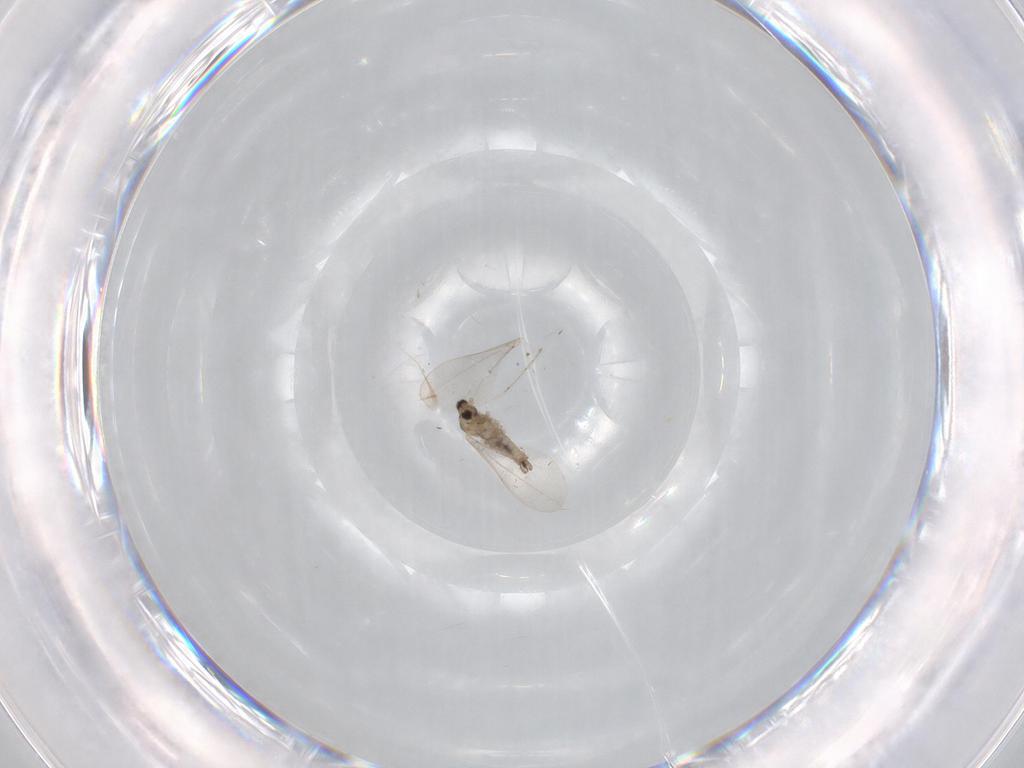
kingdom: Animalia
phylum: Arthropoda
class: Insecta
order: Diptera
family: Cecidomyiidae
